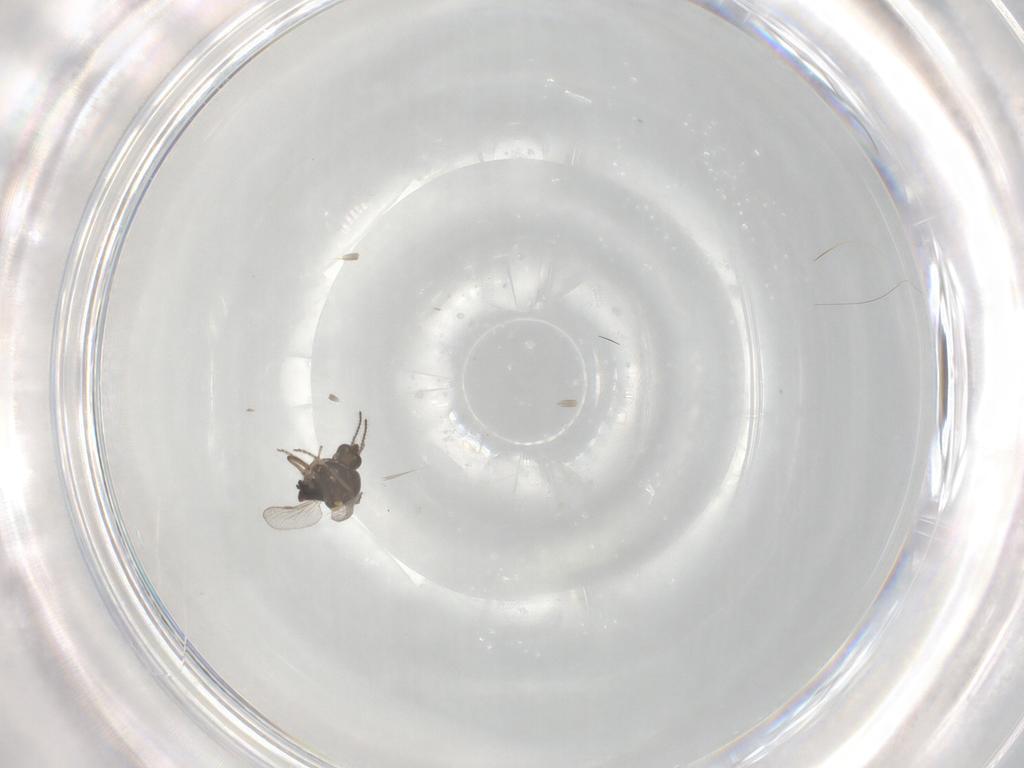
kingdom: Animalia
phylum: Arthropoda
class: Insecta
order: Diptera
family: Ceratopogonidae
